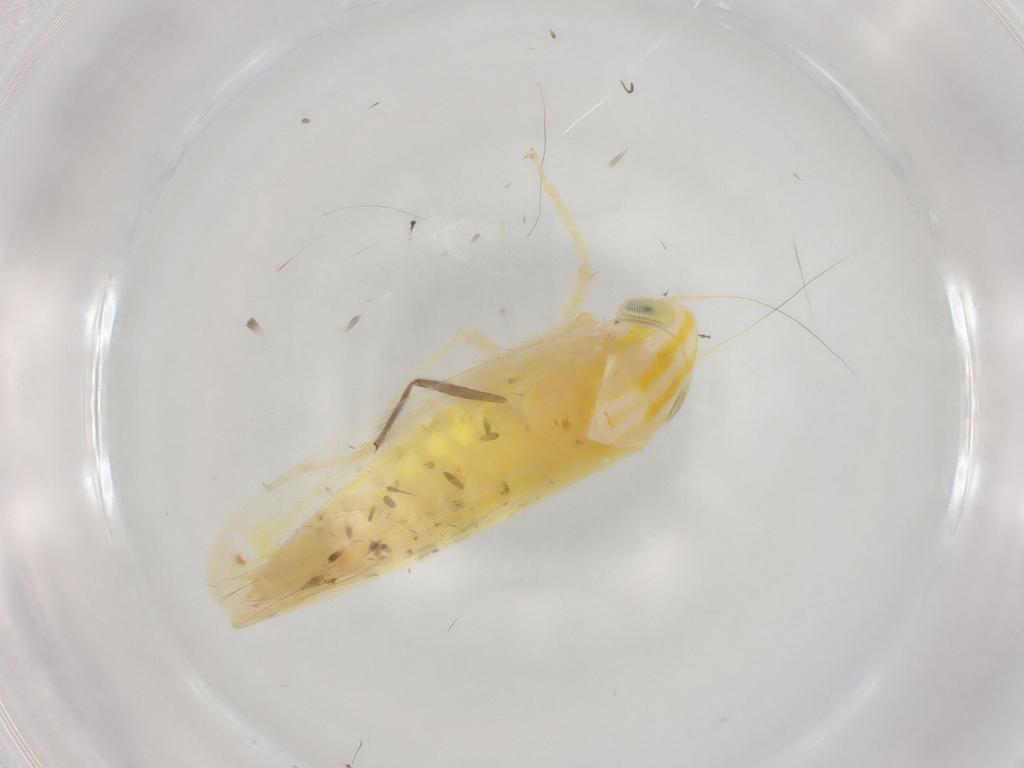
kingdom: Animalia
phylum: Arthropoda
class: Insecta
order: Hemiptera
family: Cicadellidae
